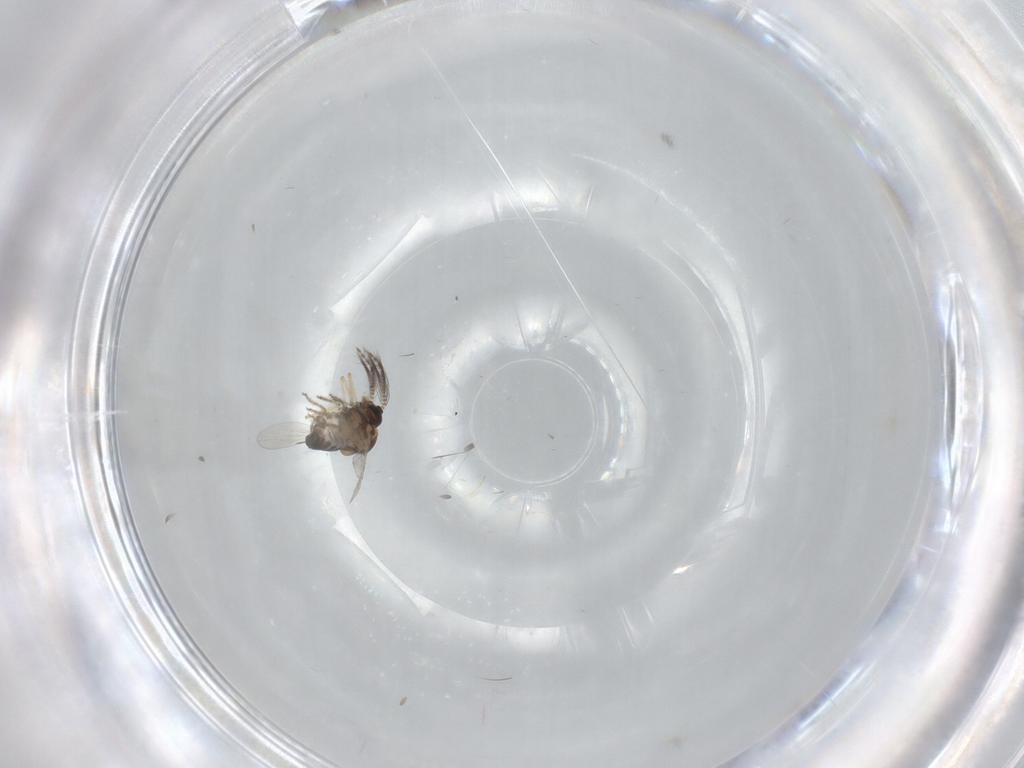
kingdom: Animalia
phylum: Arthropoda
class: Insecta
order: Diptera
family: Ceratopogonidae
